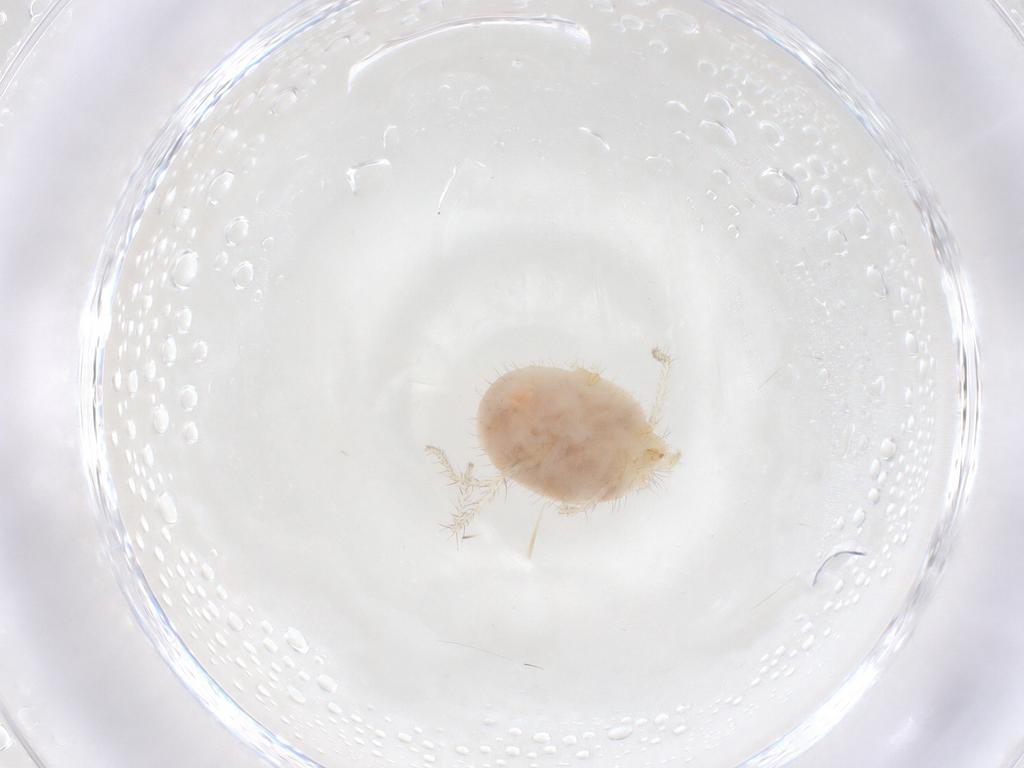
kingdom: Animalia
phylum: Arthropoda
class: Arachnida
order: Trombidiformes
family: Erythraeidae
